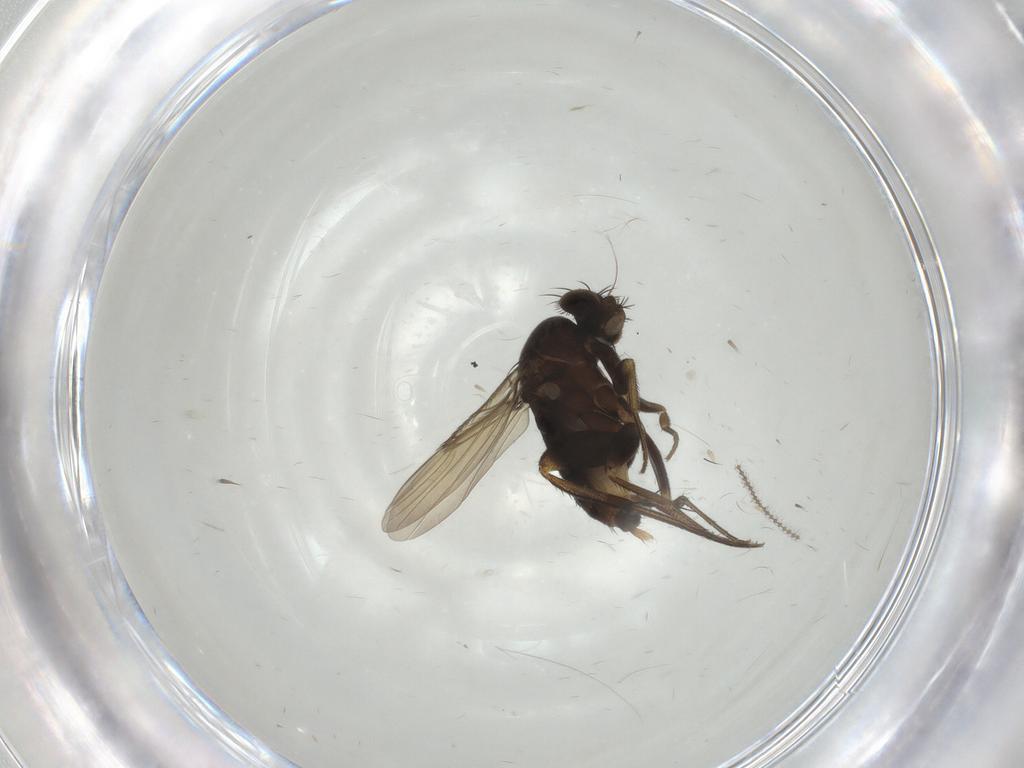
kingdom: Animalia
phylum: Arthropoda
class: Insecta
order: Diptera
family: Phoridae
